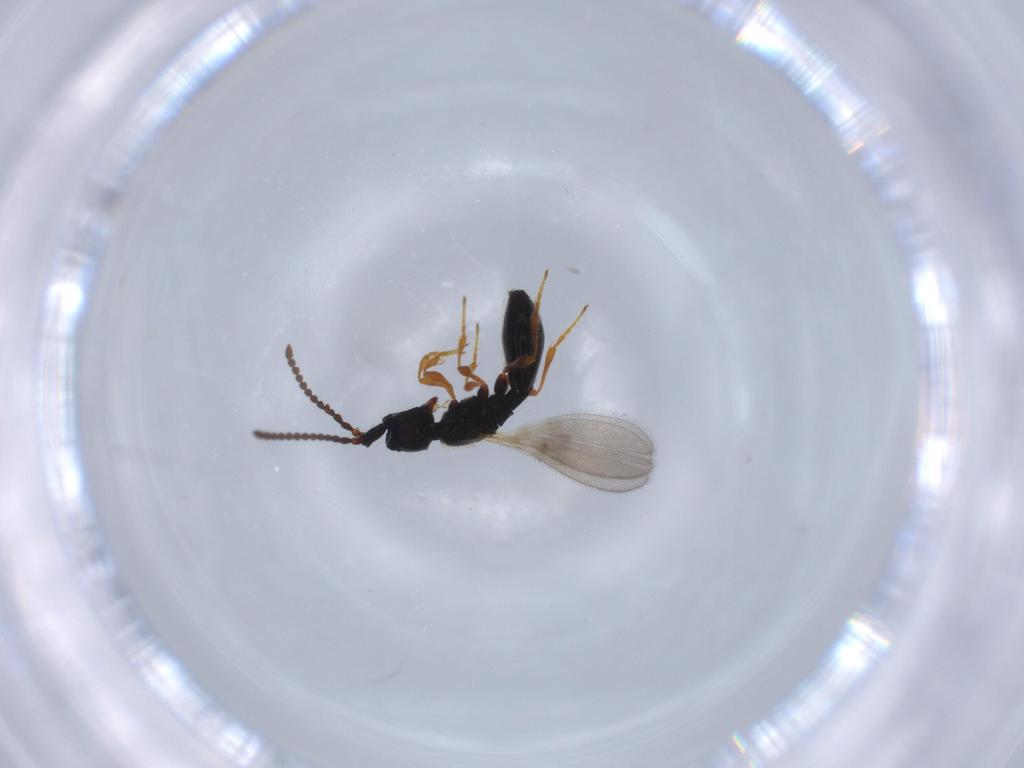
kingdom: Animalia
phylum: Arthropoda
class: Insecta
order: Hymenoptera
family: Diapriidae
